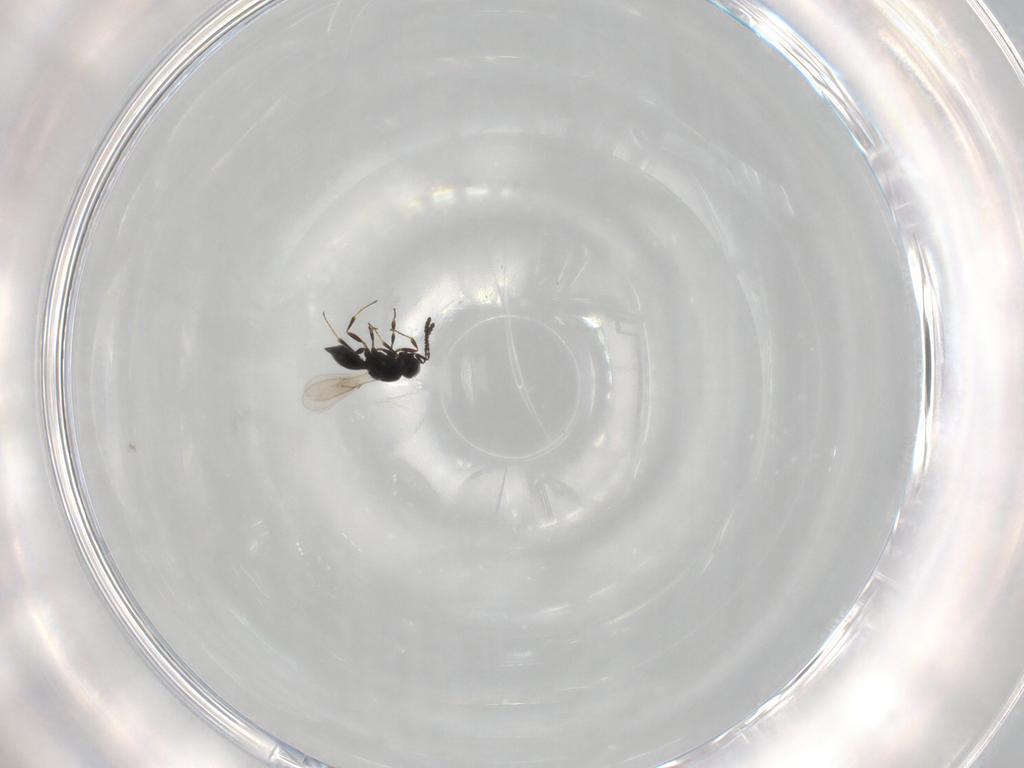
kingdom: Animalia
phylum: Arthropoda
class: Insecta
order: Hymenoptera
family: Scelionidae
